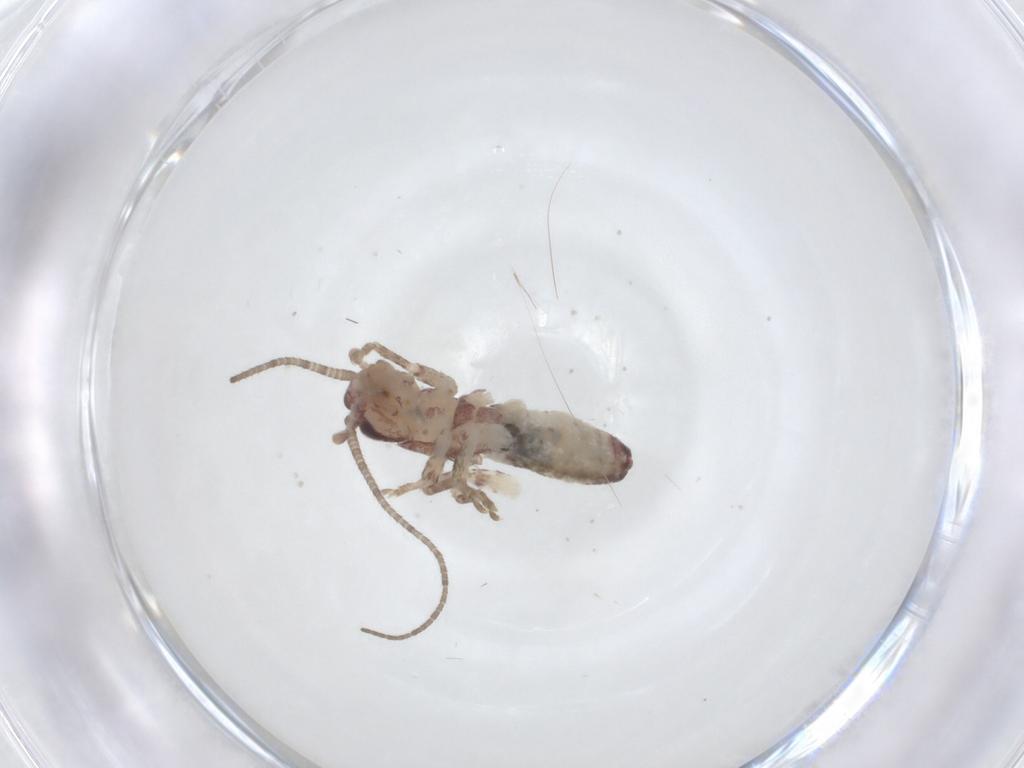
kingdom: Animalia
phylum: Arthropoda
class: Insecta
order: Orthoptera
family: Gryllidae
